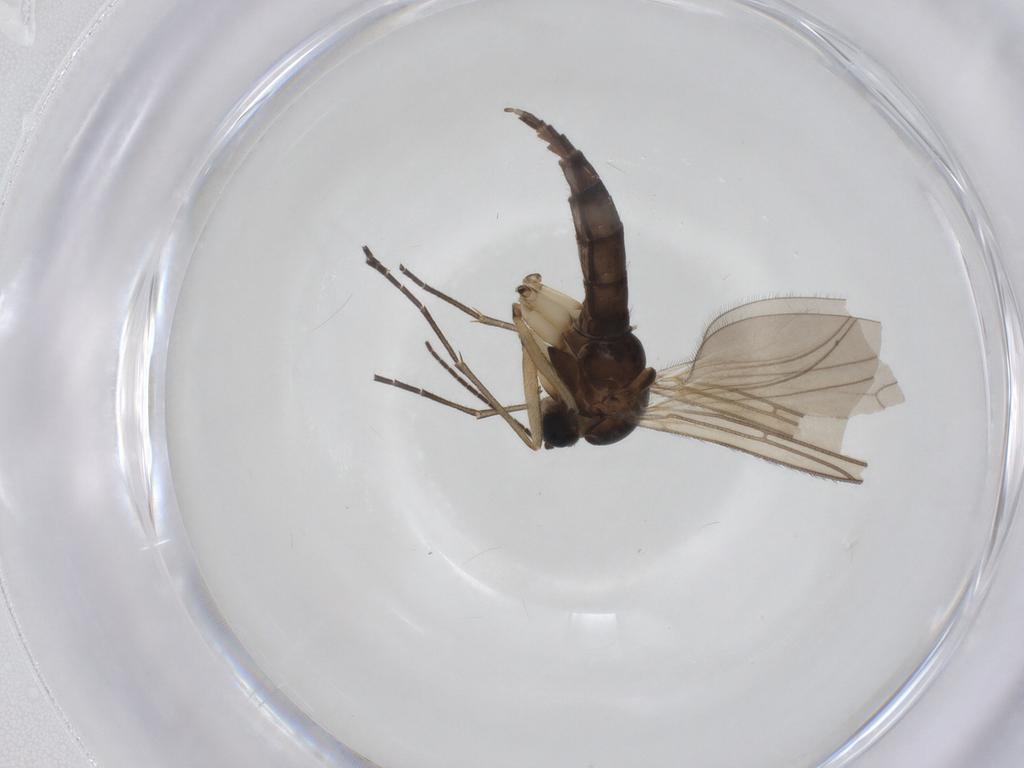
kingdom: Animalia
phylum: Arthropoda
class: Insecta
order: Diptera
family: Sciaridae
